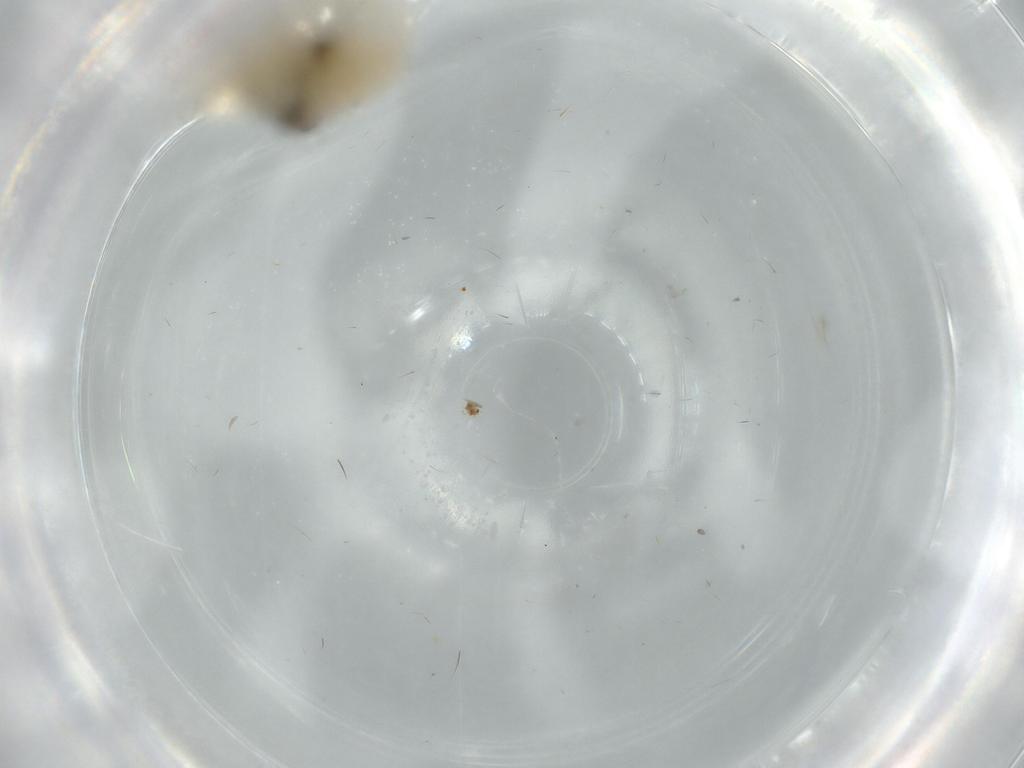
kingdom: Animalia
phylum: Arthropoda
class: Insecta
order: Psocodea
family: Caeciliusidae
